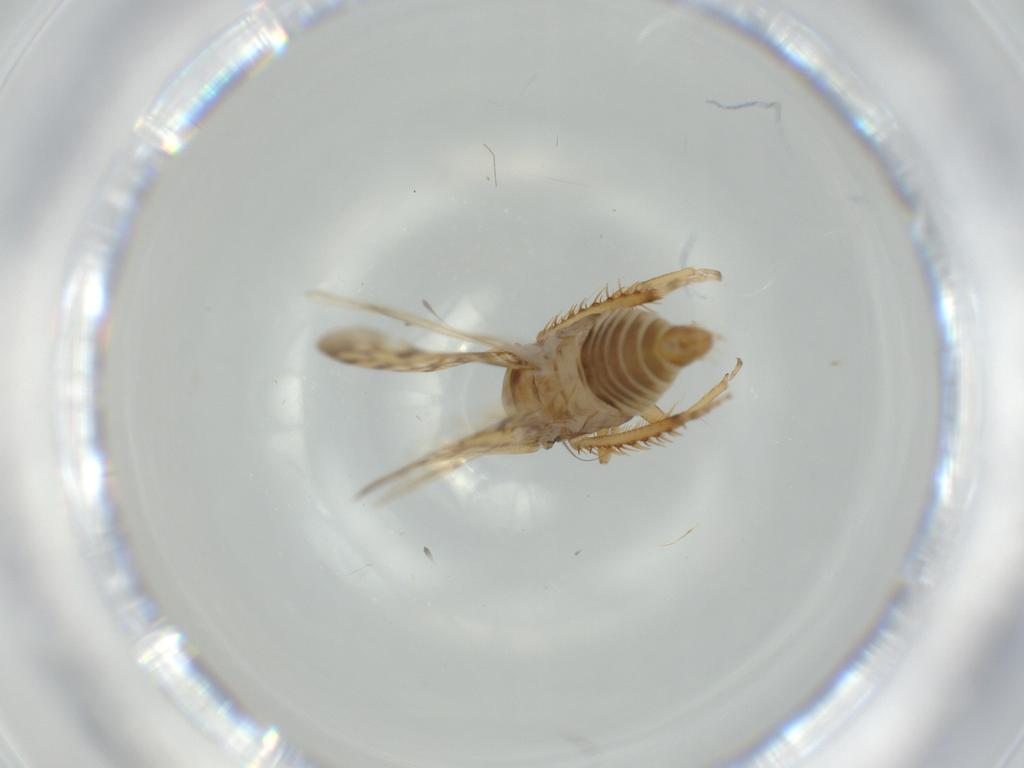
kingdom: Animalia
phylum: Arthropoda
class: Insecta
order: Hemiptera
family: Cicadellidae
